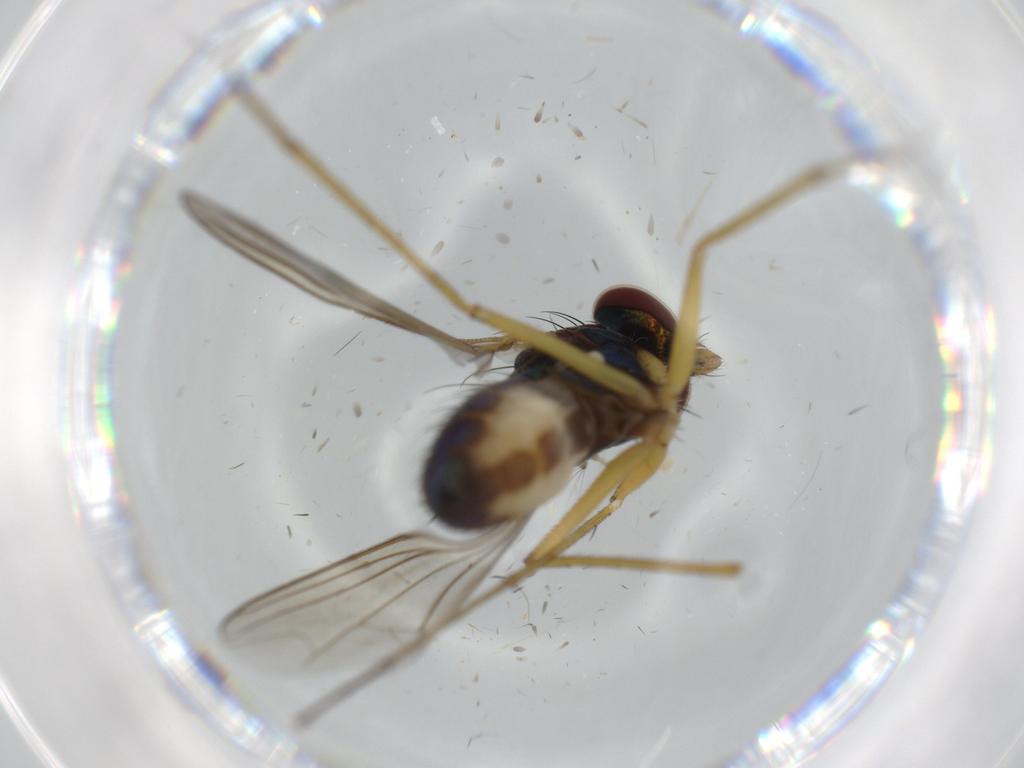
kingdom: Animalia
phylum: Arthropoda
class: Insecta
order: Diptera
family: Dolichopodidae
